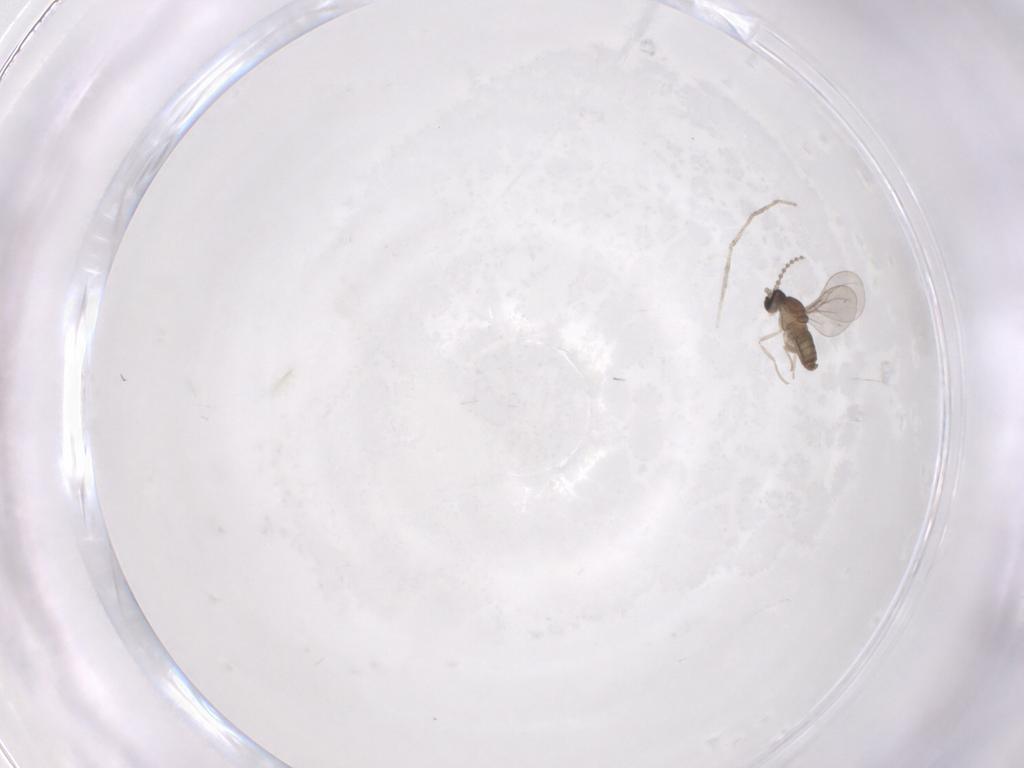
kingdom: Animalia
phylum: Arthropoda
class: Insecta
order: Diptera
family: Cecidomyiidae
